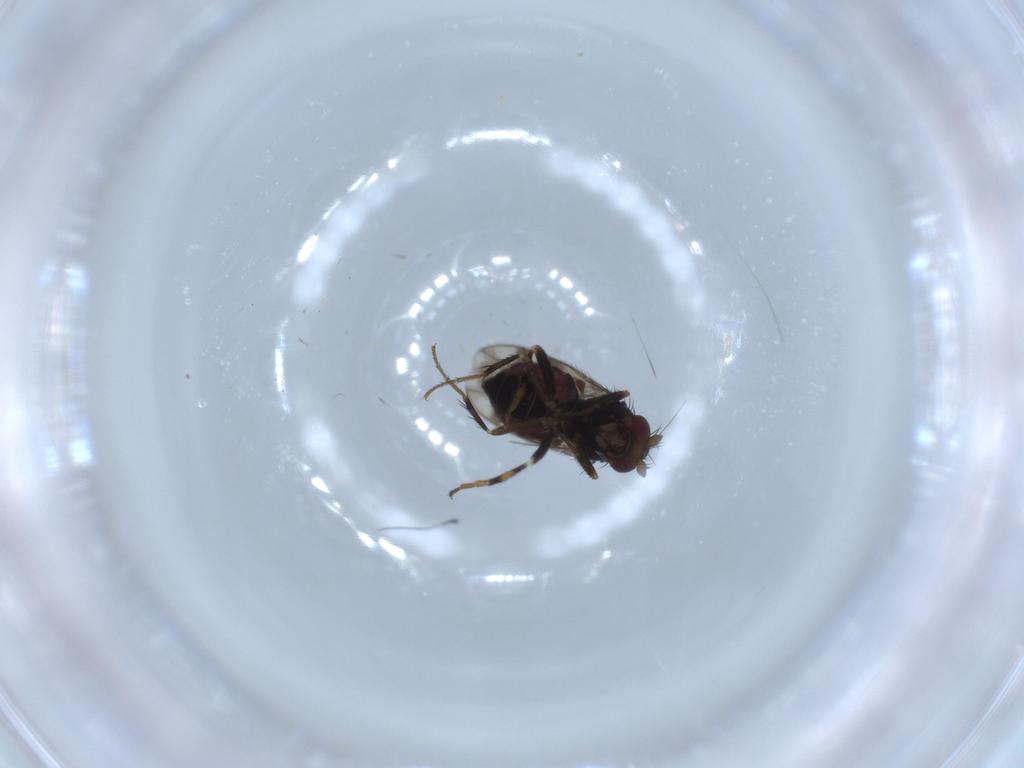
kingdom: Animalia
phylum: Arthropoda
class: Insecta
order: Diptera
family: Sphaeroceridae
